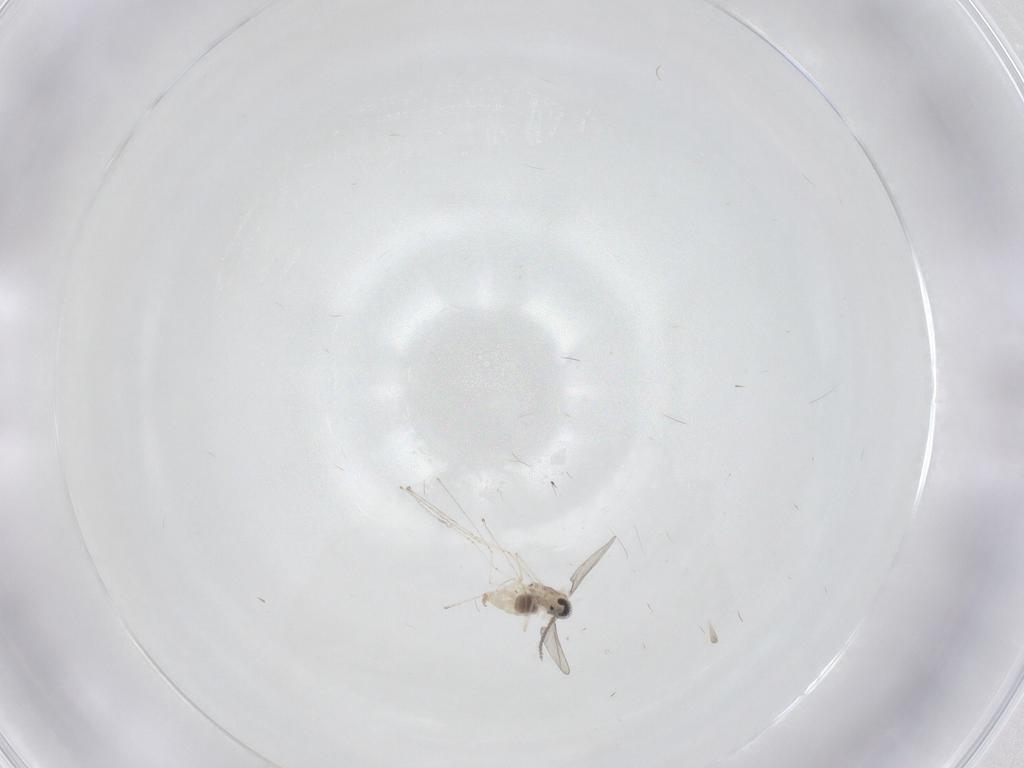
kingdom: Animalia
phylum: Arthropoda
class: Insecta
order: Diptera
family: Cecidomyiidae
